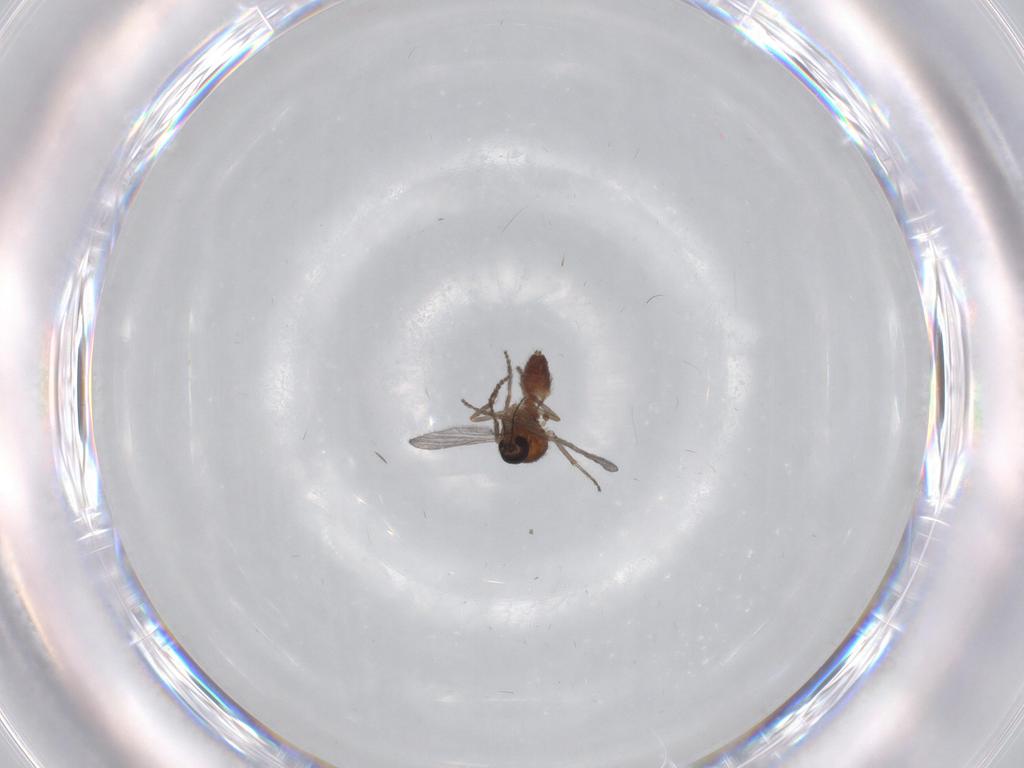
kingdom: Animalia
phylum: Arthropoda
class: Insecta
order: Diptera
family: Ceratopogonidae
